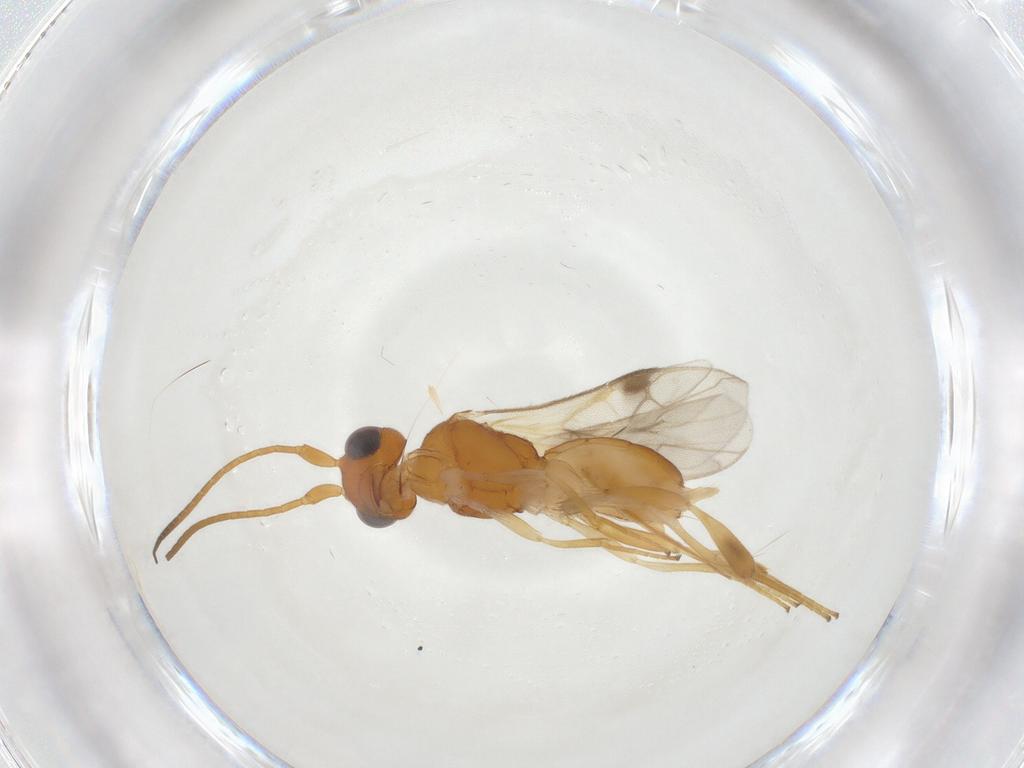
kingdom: Animalia
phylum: Arthropoda
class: Insecta
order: Hymenoptera
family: Braconidae
